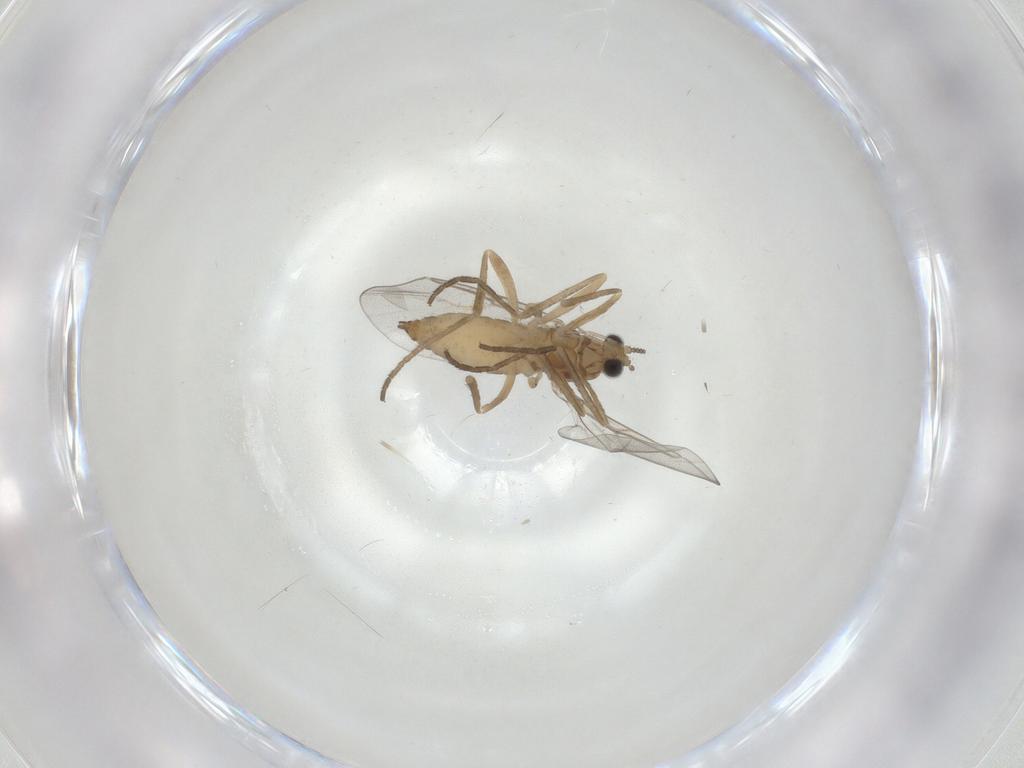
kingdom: Animalia
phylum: Arthropoda
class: Insecta
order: Diptera
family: Cecidomyiidae
